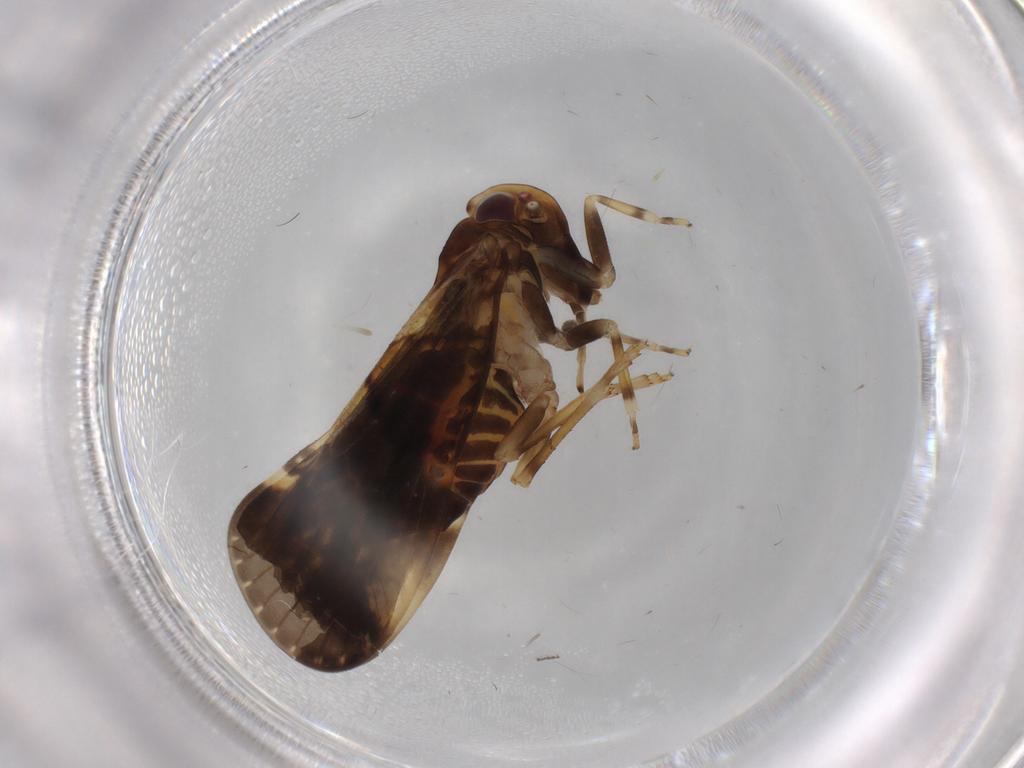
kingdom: Animalia
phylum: Arthropoda
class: Insecta
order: Hemiptera
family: Cixiidae
